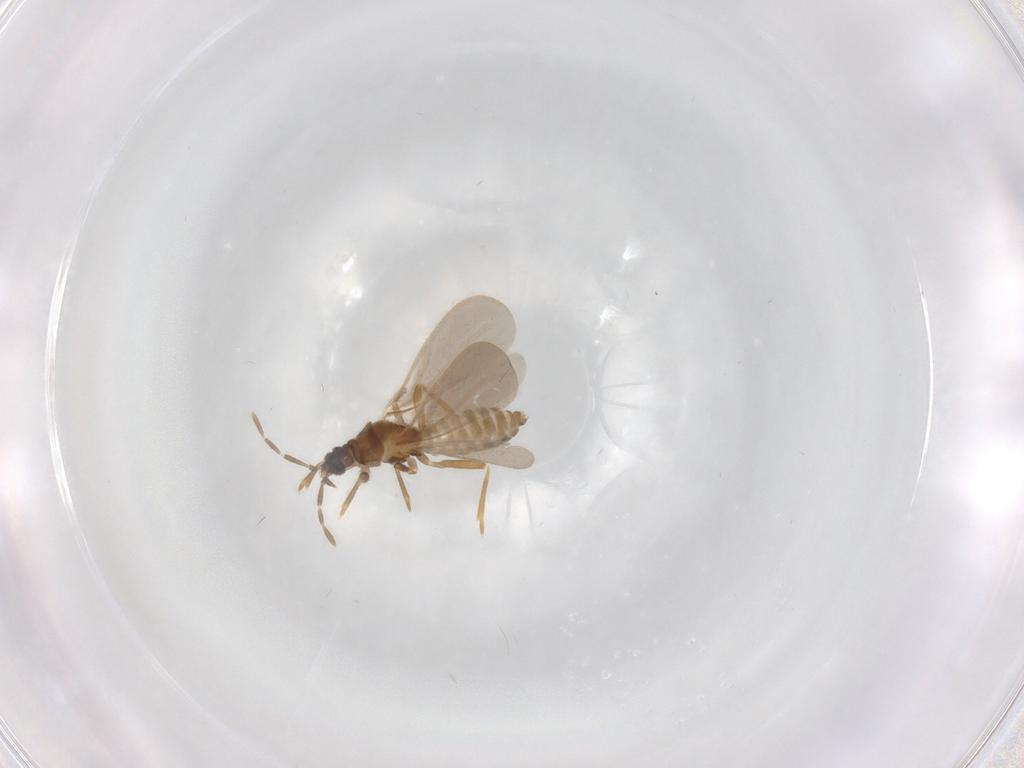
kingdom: Animalia
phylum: Arthropoda
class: Insecta
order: Hemiptera
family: Enicocephalidae
